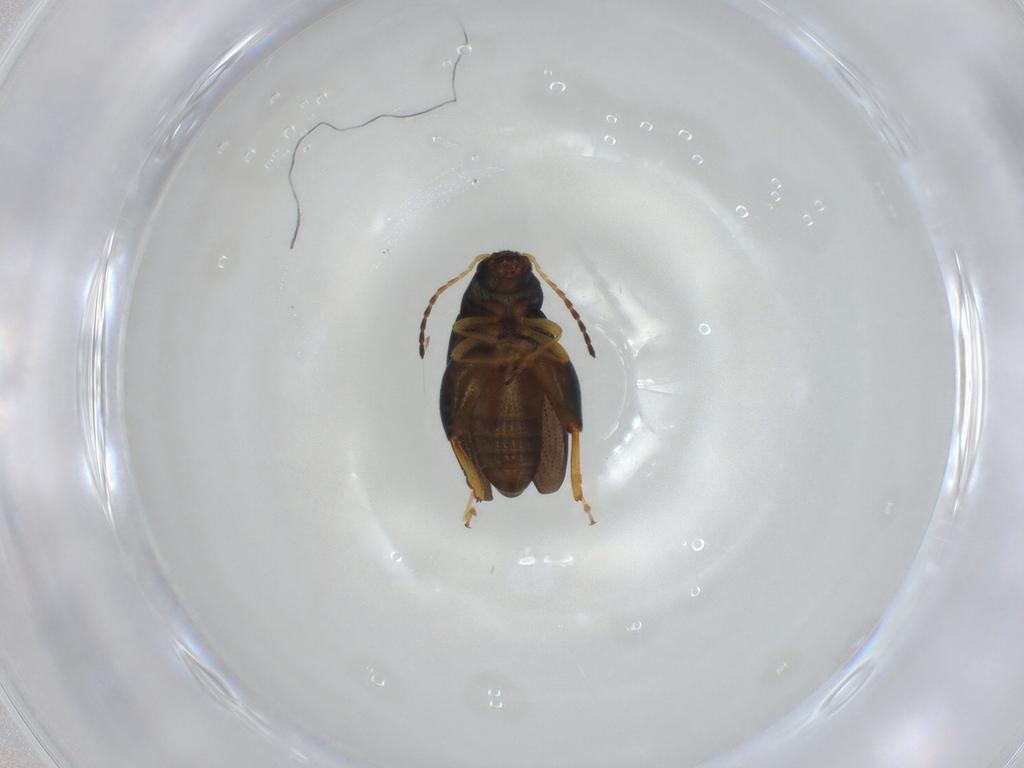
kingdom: Animalia
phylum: Arthropoda
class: Insecta
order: Coleoptera
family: Chrysomelidae
